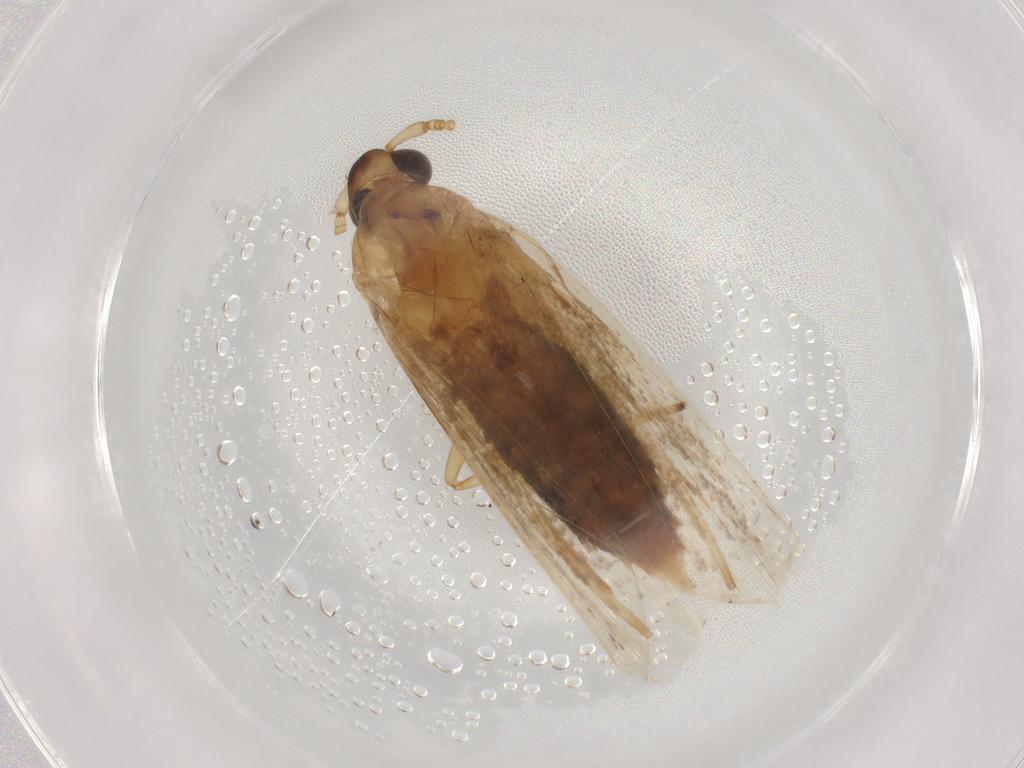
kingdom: Animalia
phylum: Arthropoda
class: Insecta
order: Lepidoptera
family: Lecithoceridae
